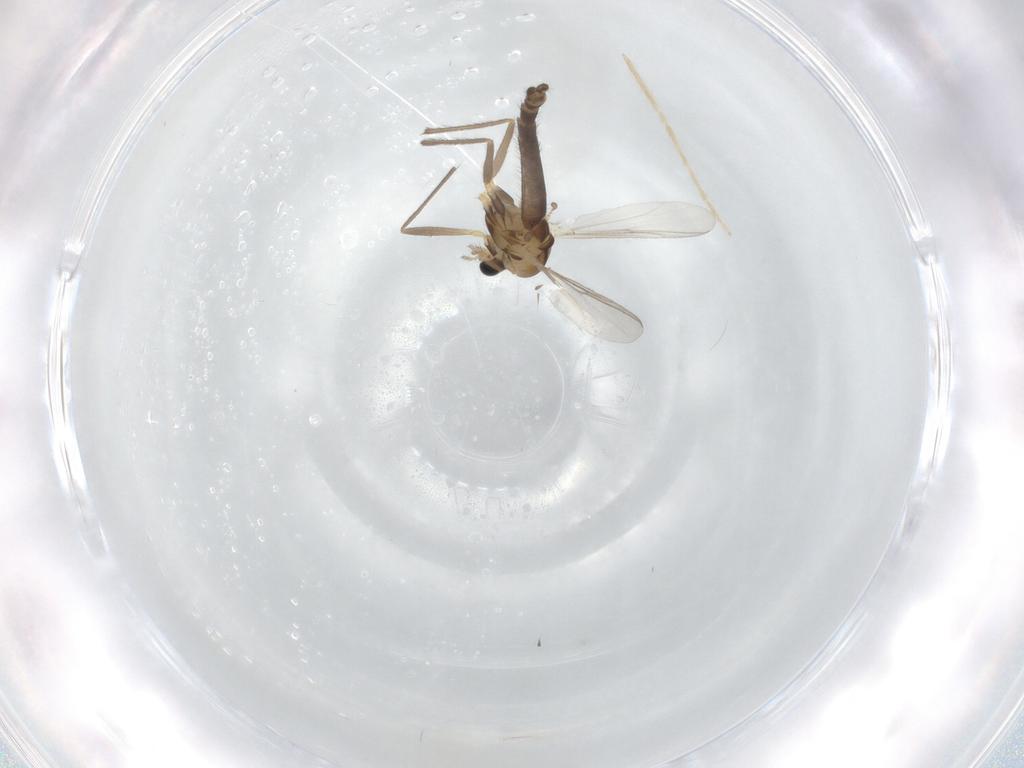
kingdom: Animalia
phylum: Arthropoda
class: Insecta
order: Diptera
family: Chironomidae
